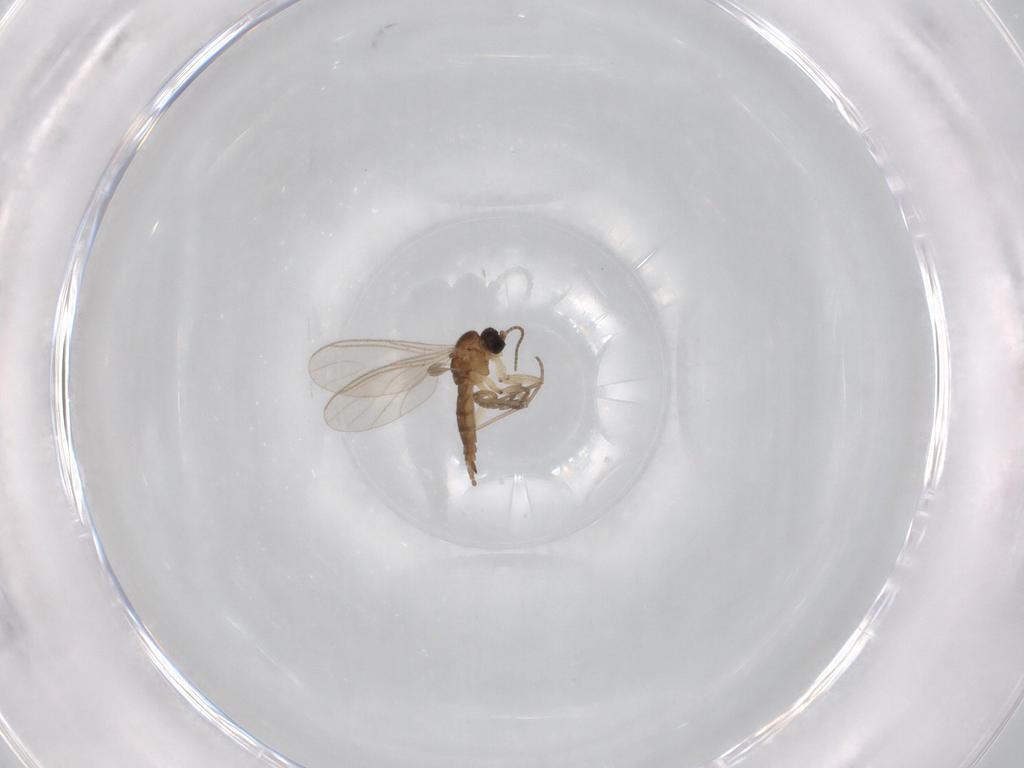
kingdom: Animalia
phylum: Arthropoda
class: Insecta
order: Diptera
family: Sciaridae
